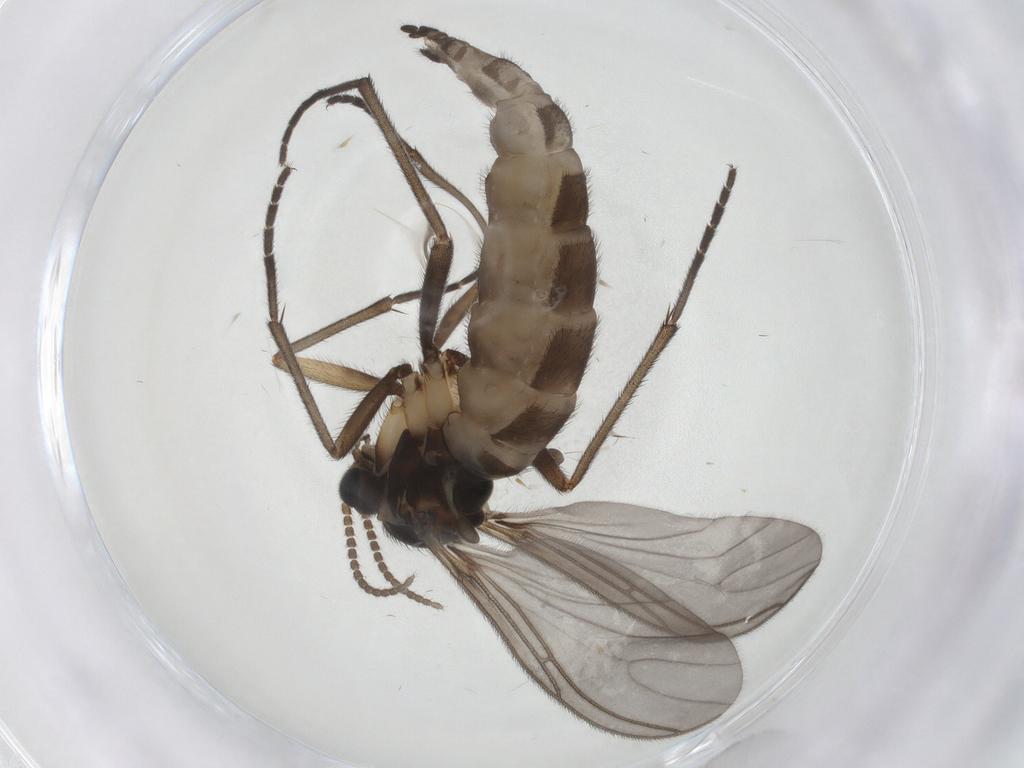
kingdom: Animalia
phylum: Arthropoda
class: Insecta
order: Diptera
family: Sciaridae
